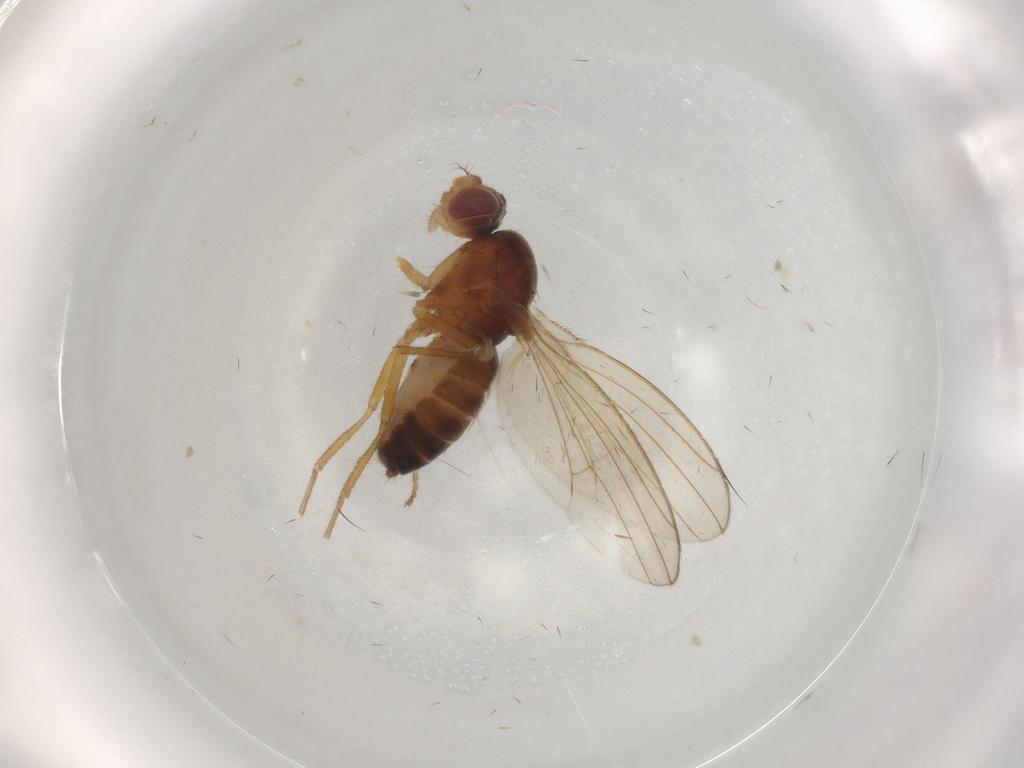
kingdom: Animalia
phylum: Arthropoda
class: Insecta
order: Diptera
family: Drosophilidae
